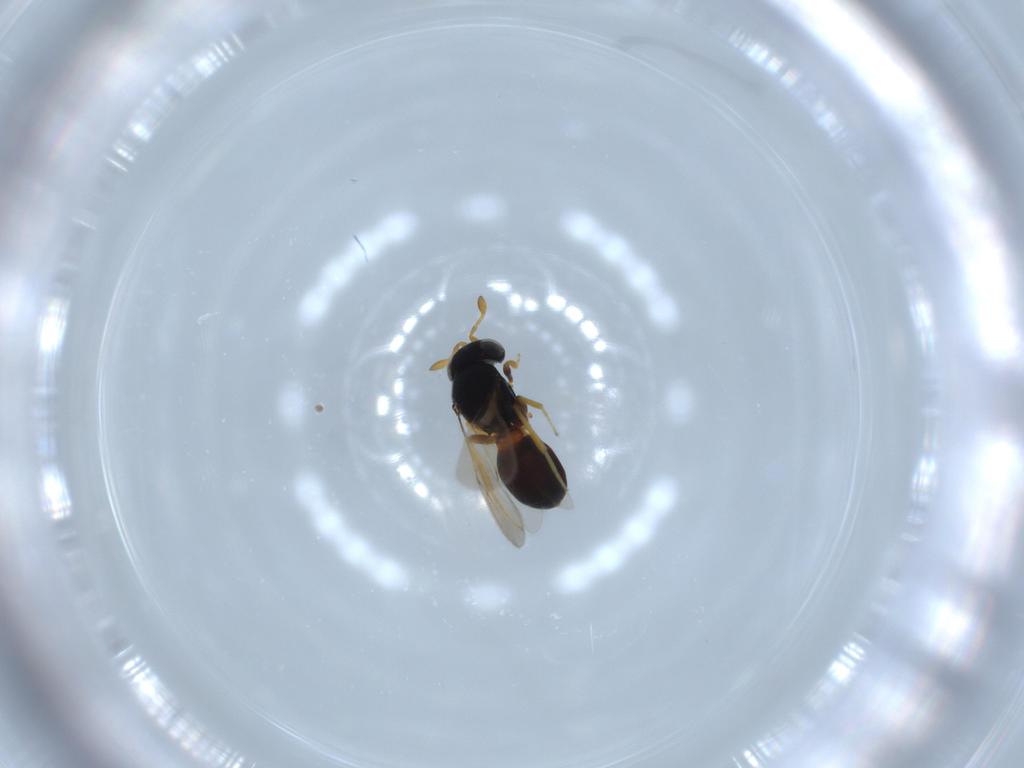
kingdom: Animalia
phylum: Arthropoda
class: Insecta
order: Hymenoptera
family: Scelionidae
